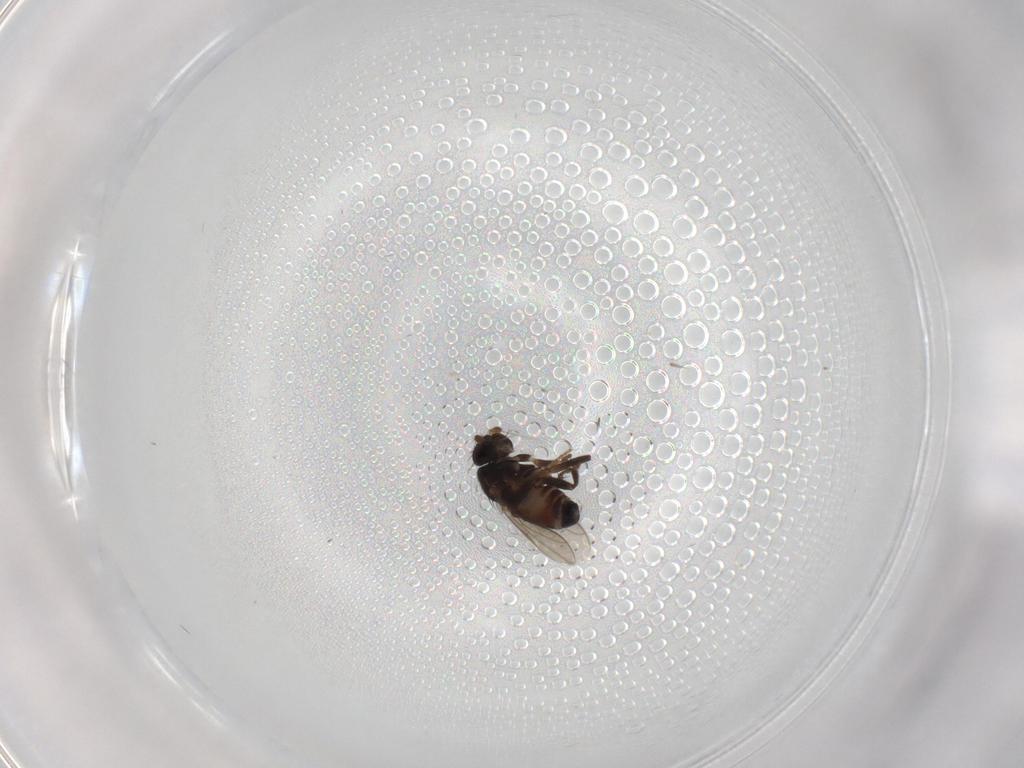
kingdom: Animalia
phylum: Arthropoda
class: Insecta
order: Diptera
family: Sphaeroceridae
